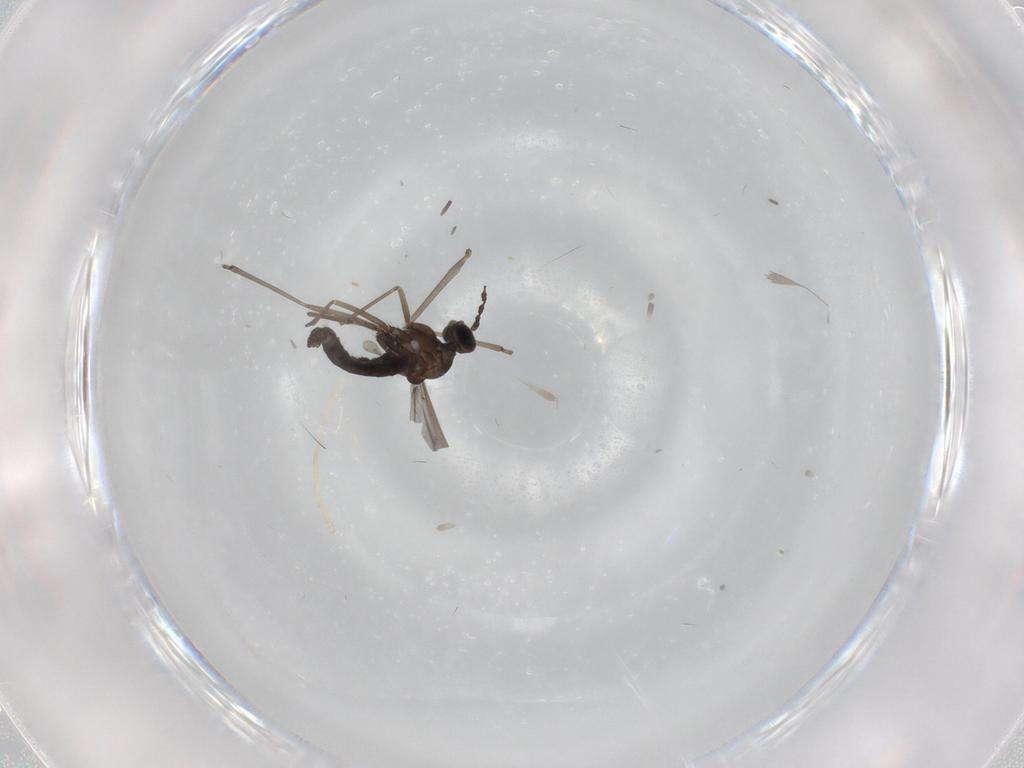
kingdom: Animalia
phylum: Arthropoda
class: Insecta
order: Diptera
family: Cecidomyiidae
